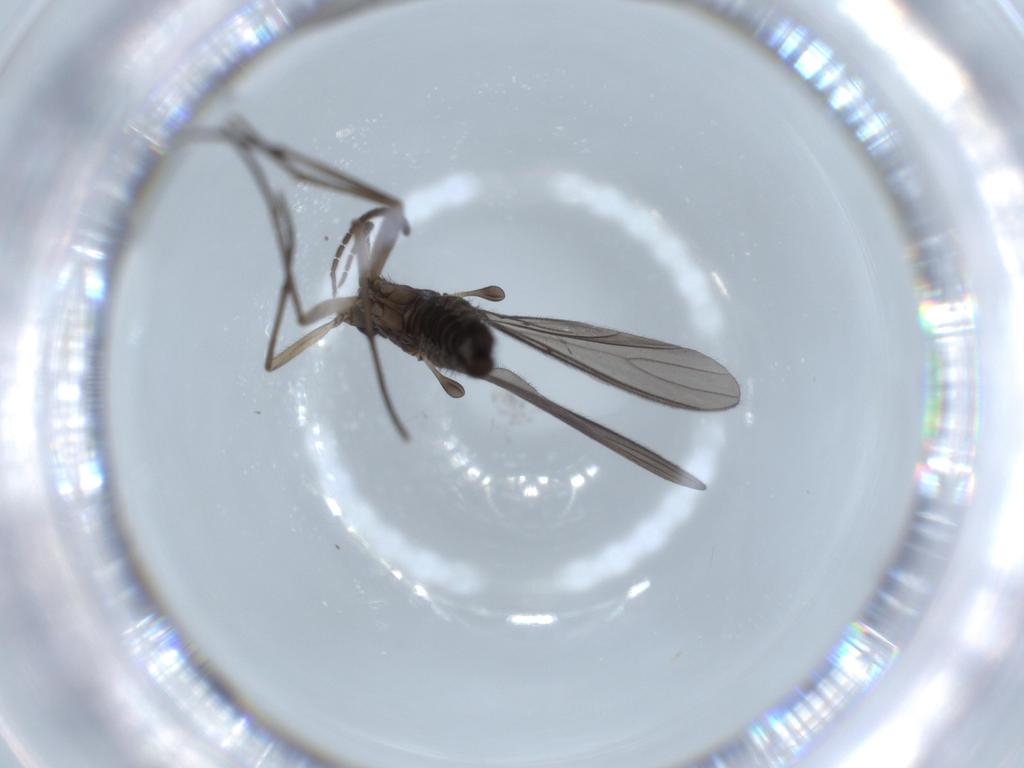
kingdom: Animalia
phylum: Arthropoda
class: Insecta
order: Diptera
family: Sciaridae
